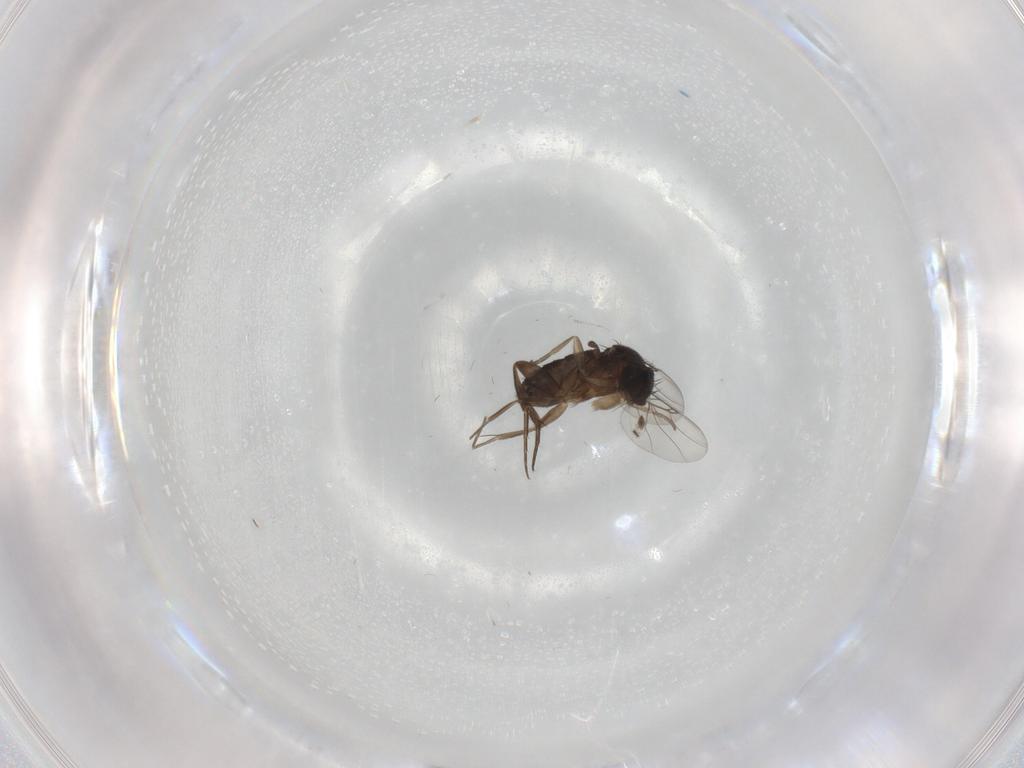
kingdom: Animalia
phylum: Arthropoda
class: Insecta
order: Diptera
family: Phoridae
